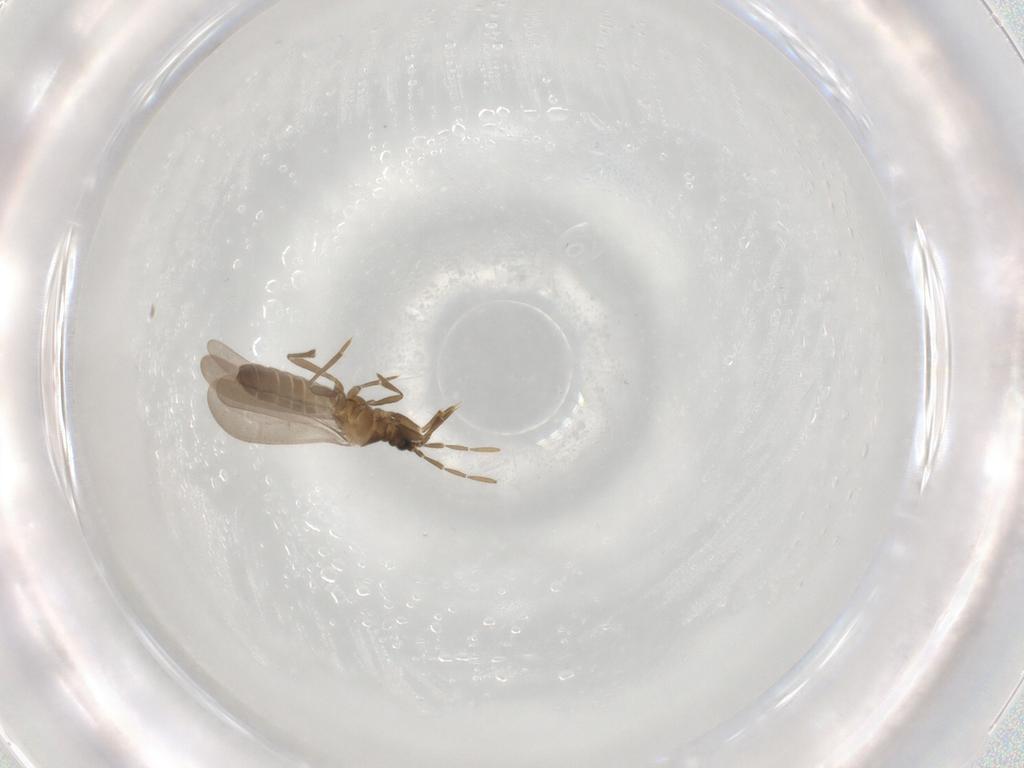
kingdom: Animalia
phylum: Arthropoda
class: Insecta
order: Hemiptera
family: Enicocephalidae
